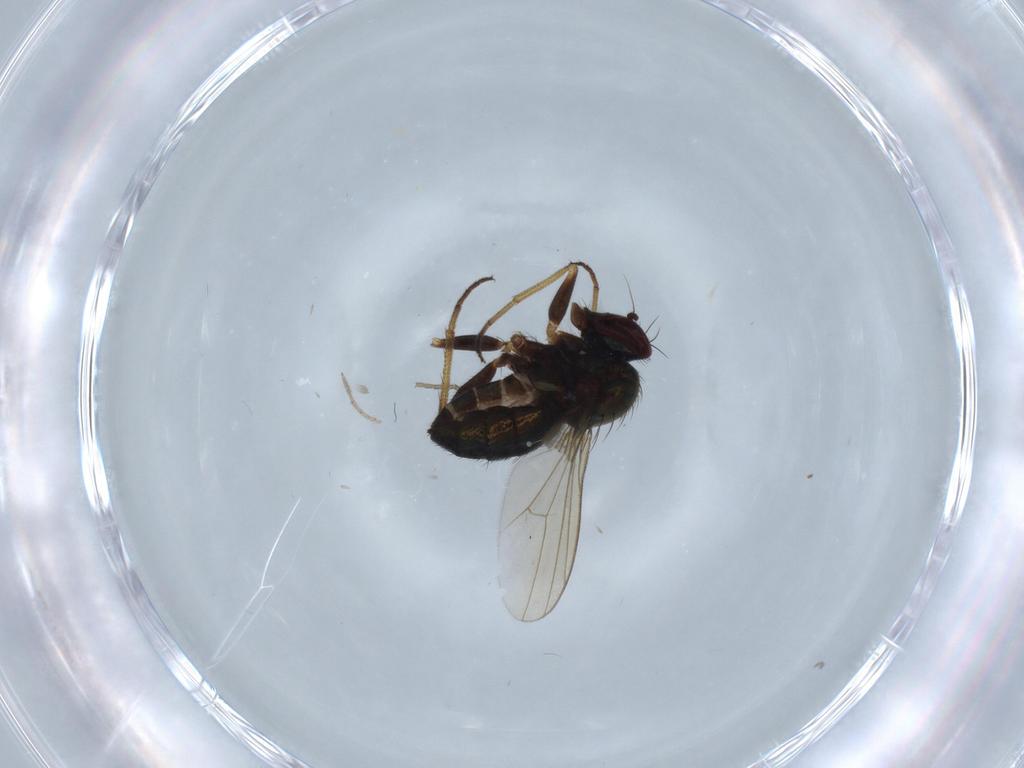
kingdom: Animalia
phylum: Arthropoda
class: Insecta
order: Diptera
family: Dolichopodidae
